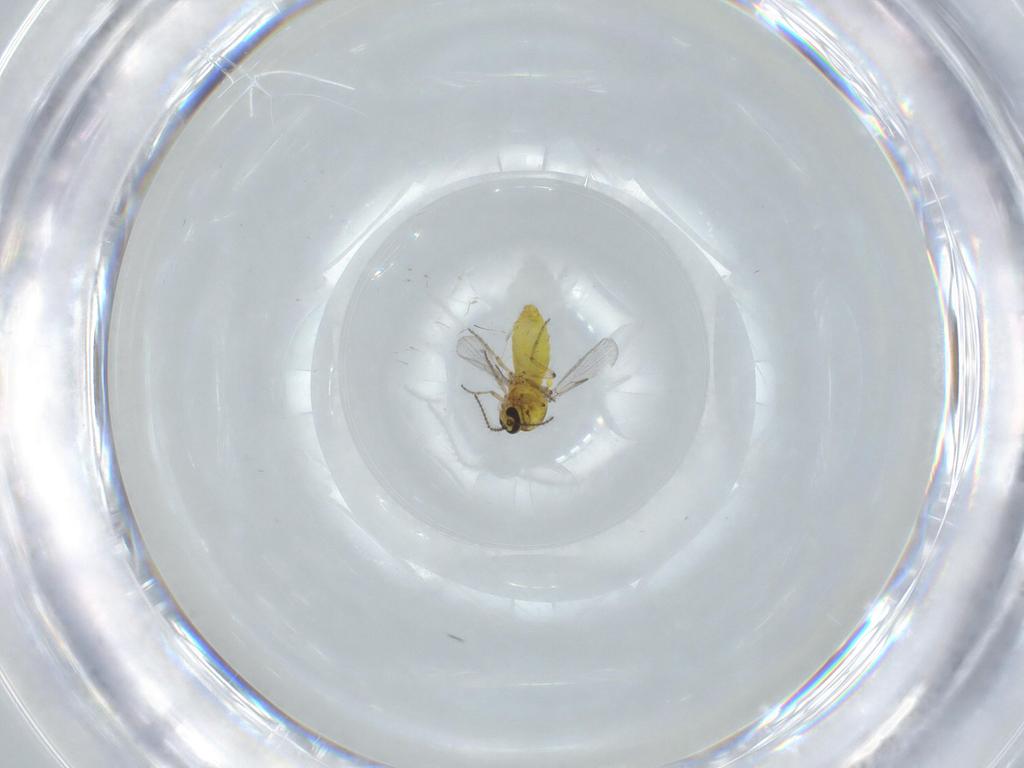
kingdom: Animalia
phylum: Arthropoda
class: Insecta
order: Diptera
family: Ceratopogonidae
